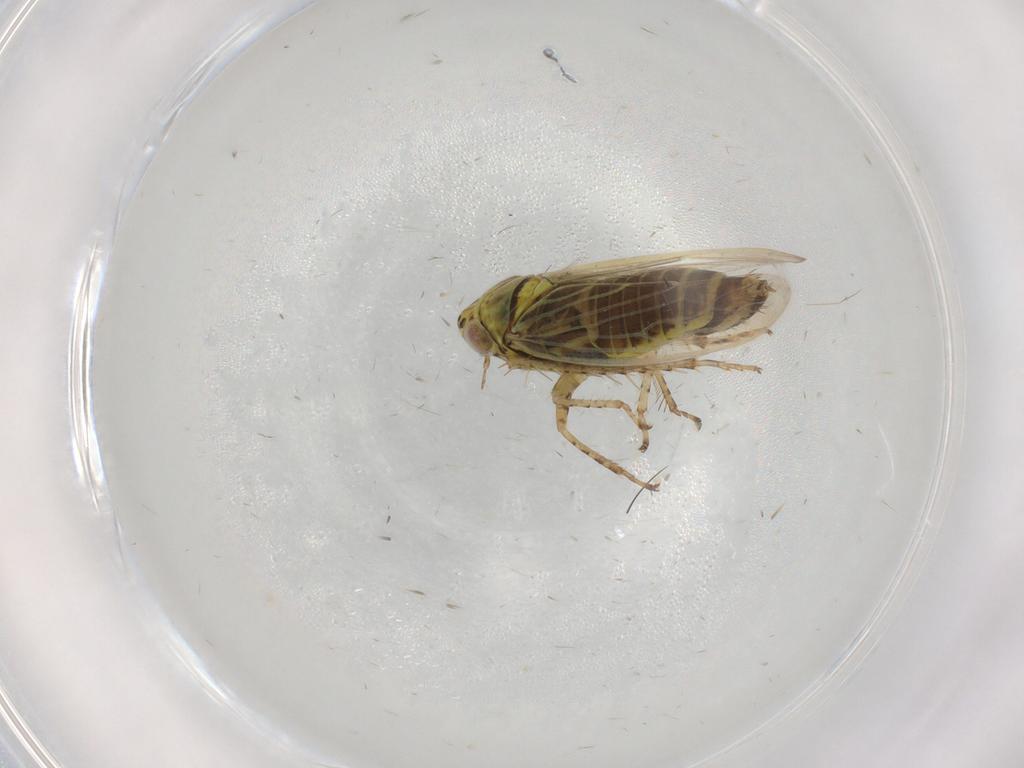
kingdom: Animalia
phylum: Arthropoda
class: Insecta
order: Hemiptera
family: Cicadellidae
